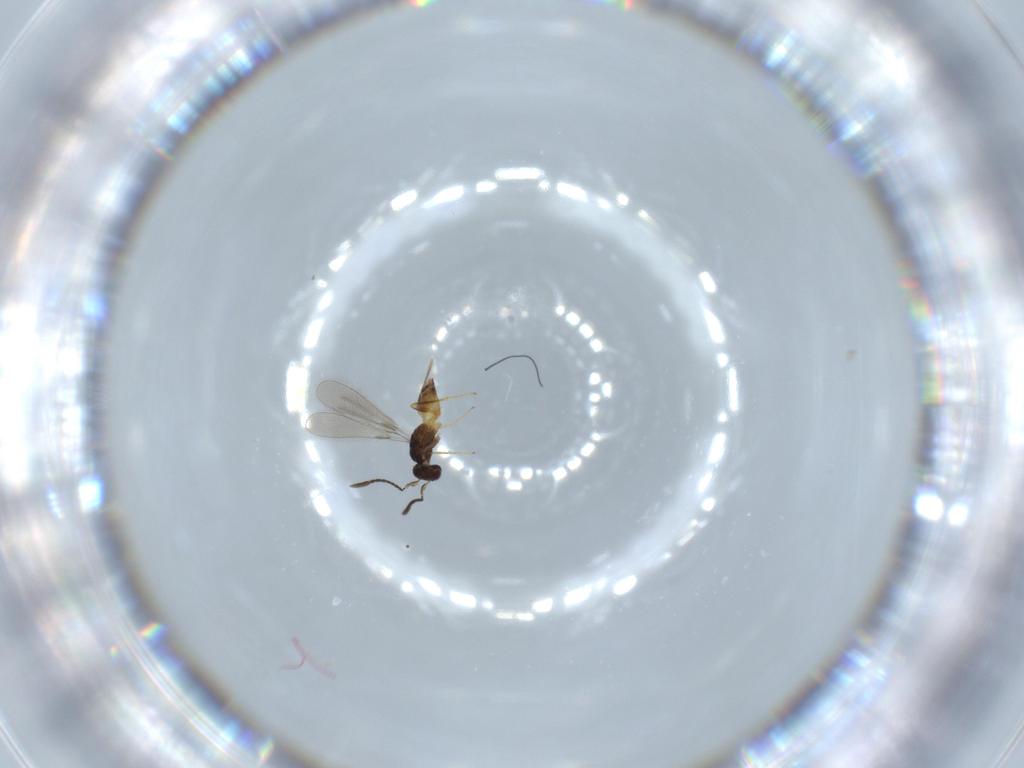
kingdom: Animalia
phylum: Arthropoda
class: Insecta
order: Hymenoptera
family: Mymaridae
